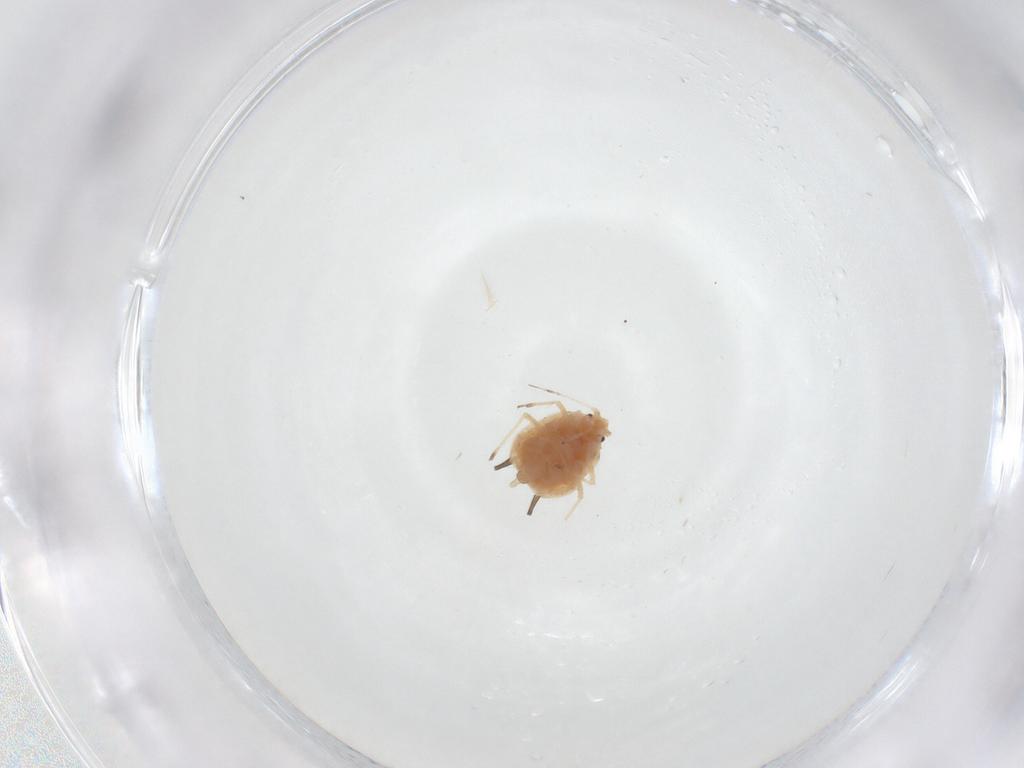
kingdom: Animalia
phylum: Arthropoda
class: Insecta
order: Hemiptera
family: Aphididae
